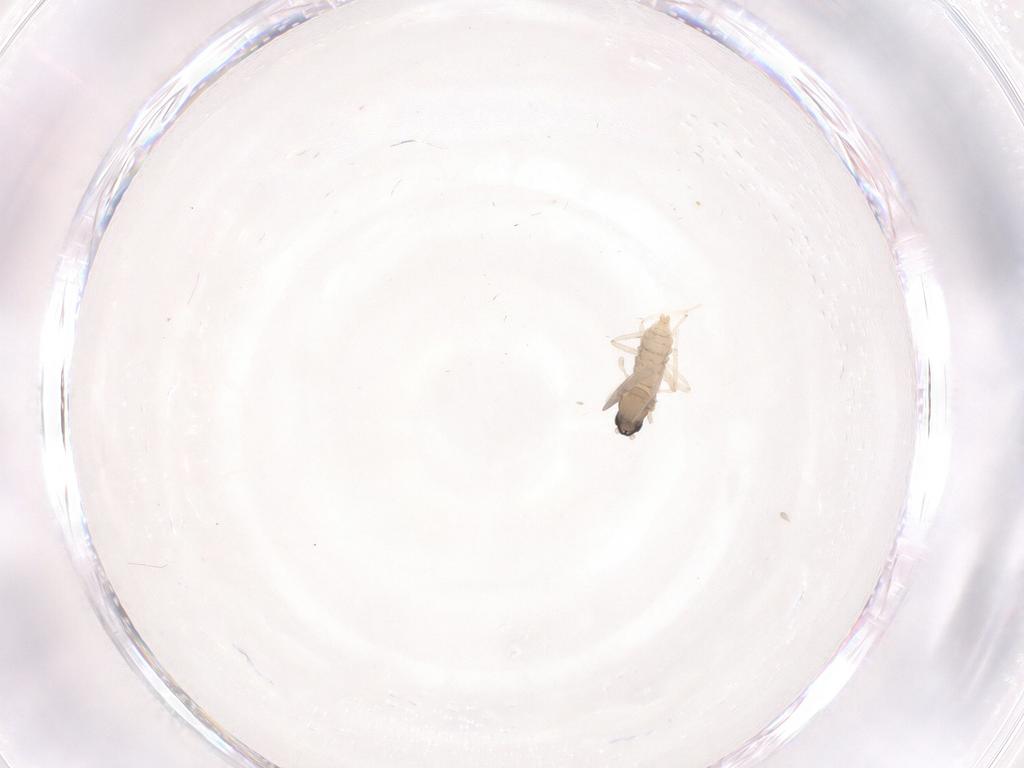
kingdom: Animalia
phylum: Arthropoda
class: Insecta
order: Diptera
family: Cecidomyiidae
